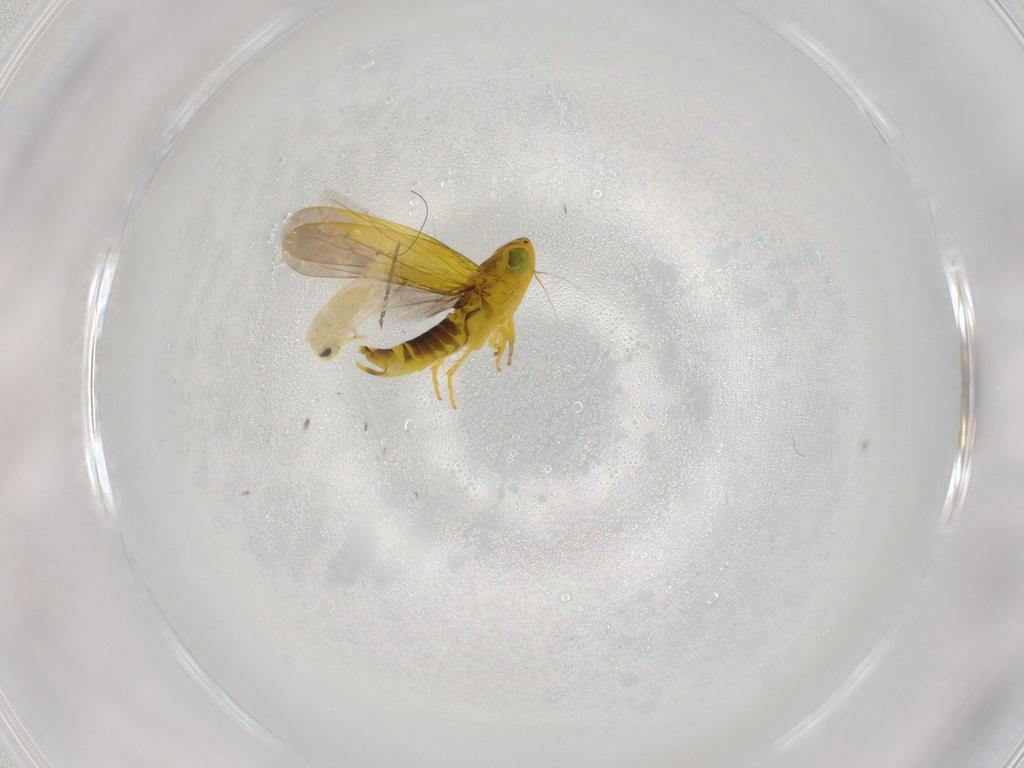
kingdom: Animalia
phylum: Arthropoda
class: Insecta
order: Hemiptera
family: Aleyrodidae
